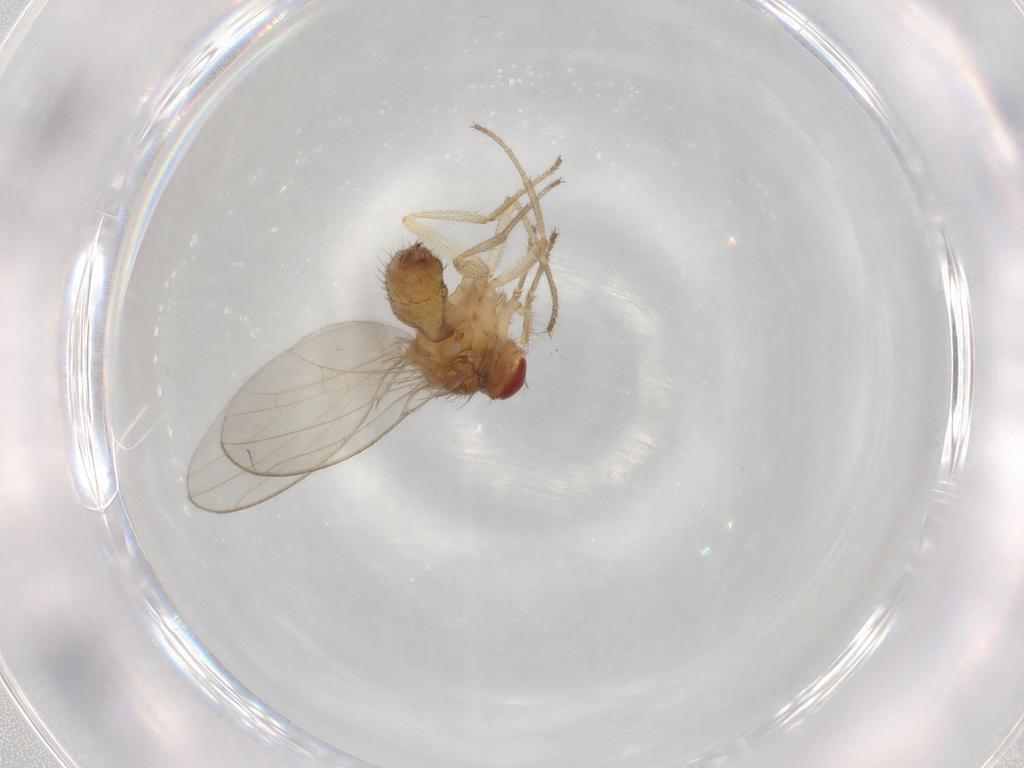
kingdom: Animalia
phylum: Arthropoda
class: Insecta
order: Diptera
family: Drosophilidae
